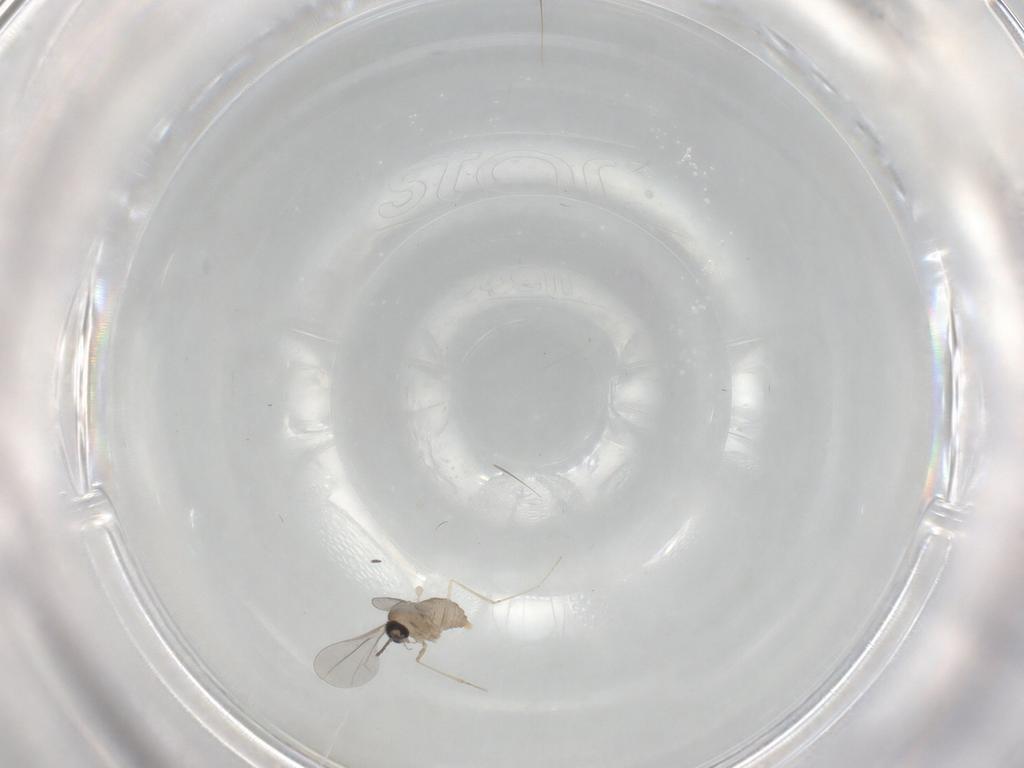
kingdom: Animalia
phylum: Arthropoda
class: Insecta
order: Diptera
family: Cecidomyiidae
